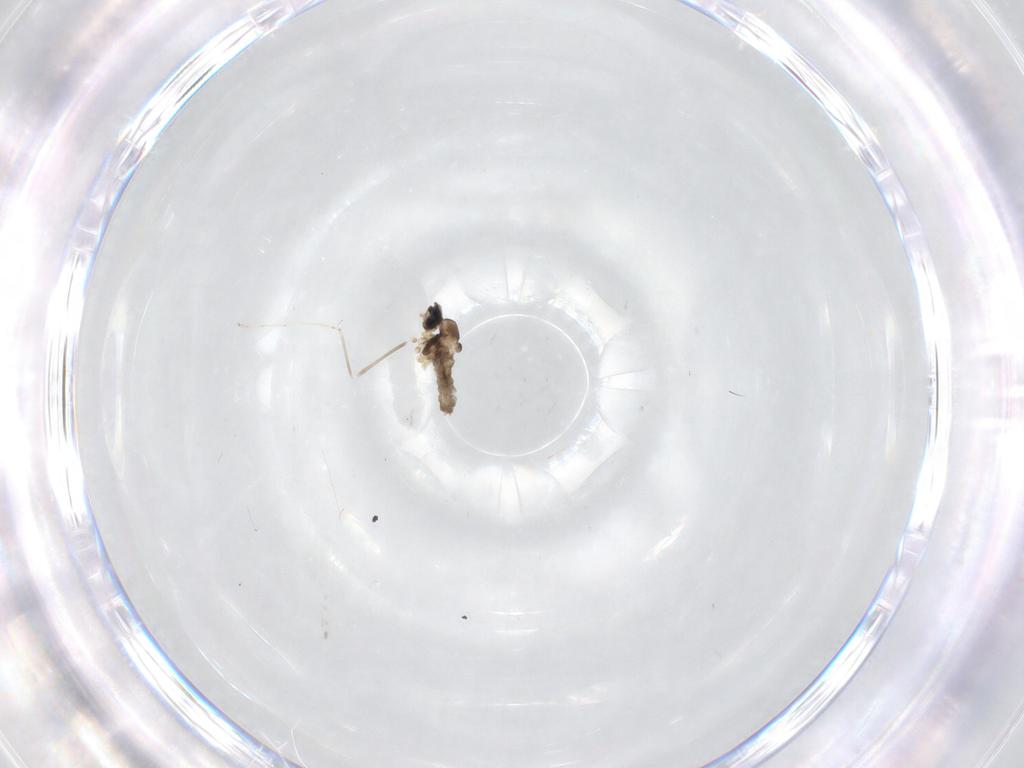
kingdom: Animalia
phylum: Arthropoda
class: Insecta
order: Diptera
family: Cecidomyiidae
